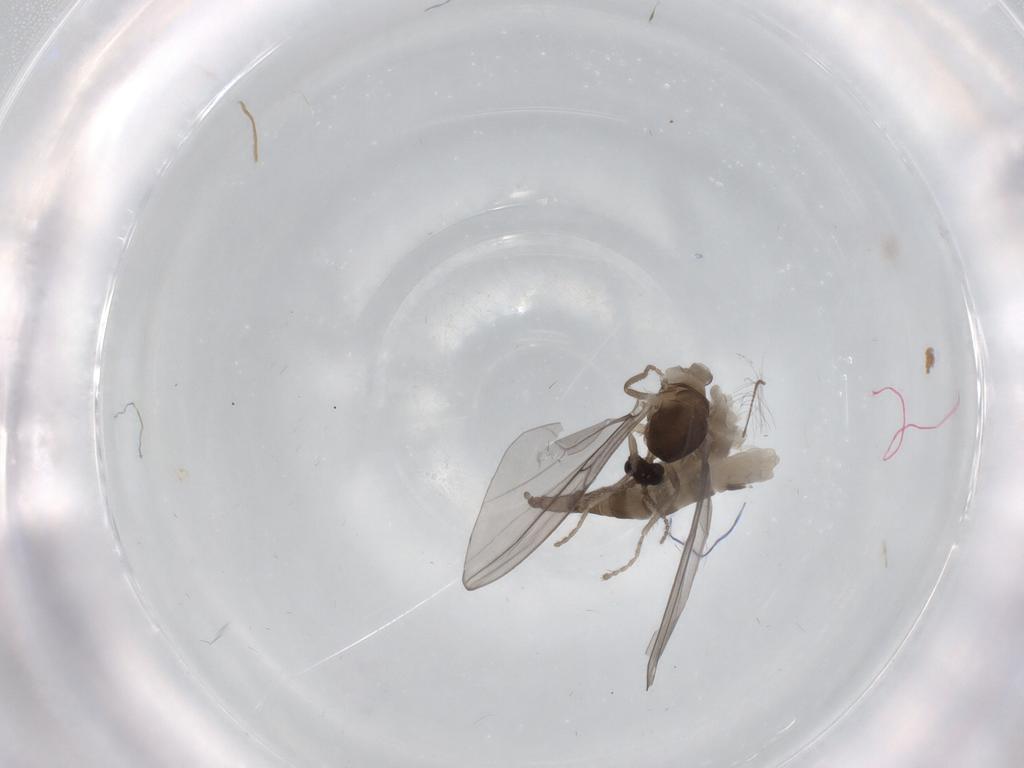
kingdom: Animalia
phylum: Arthropoda
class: Insecta
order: Diptera
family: Cecidomyiidae
